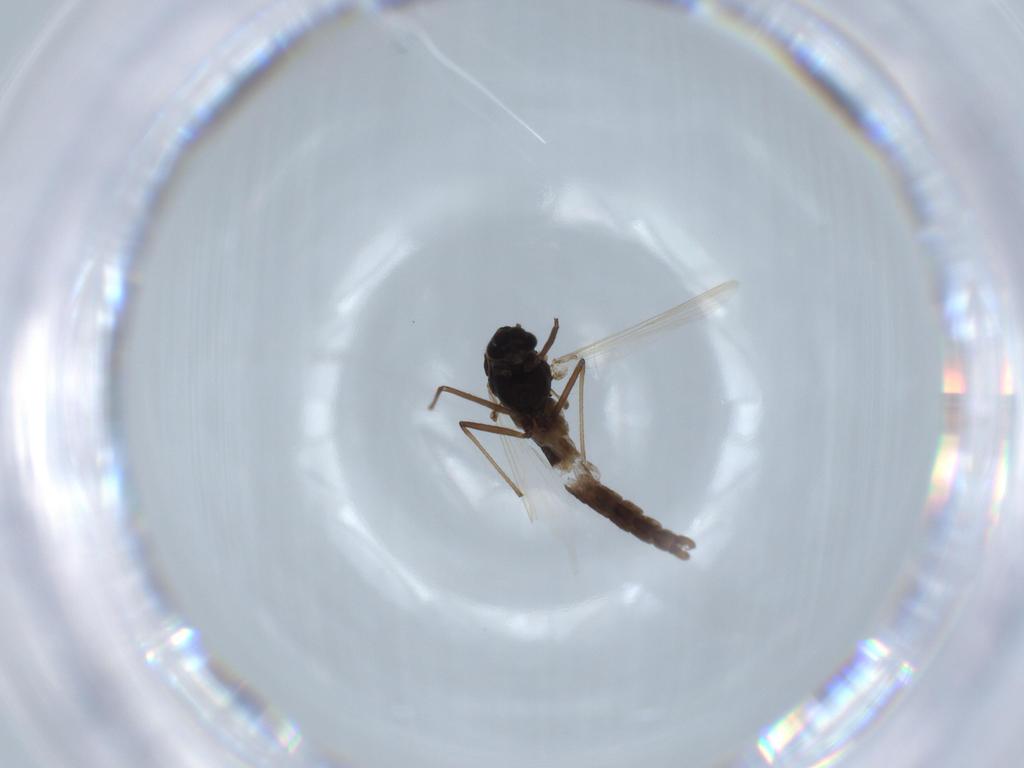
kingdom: Animalia
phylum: Arthropoda
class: Insecta
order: Diptera
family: Chironomidae
